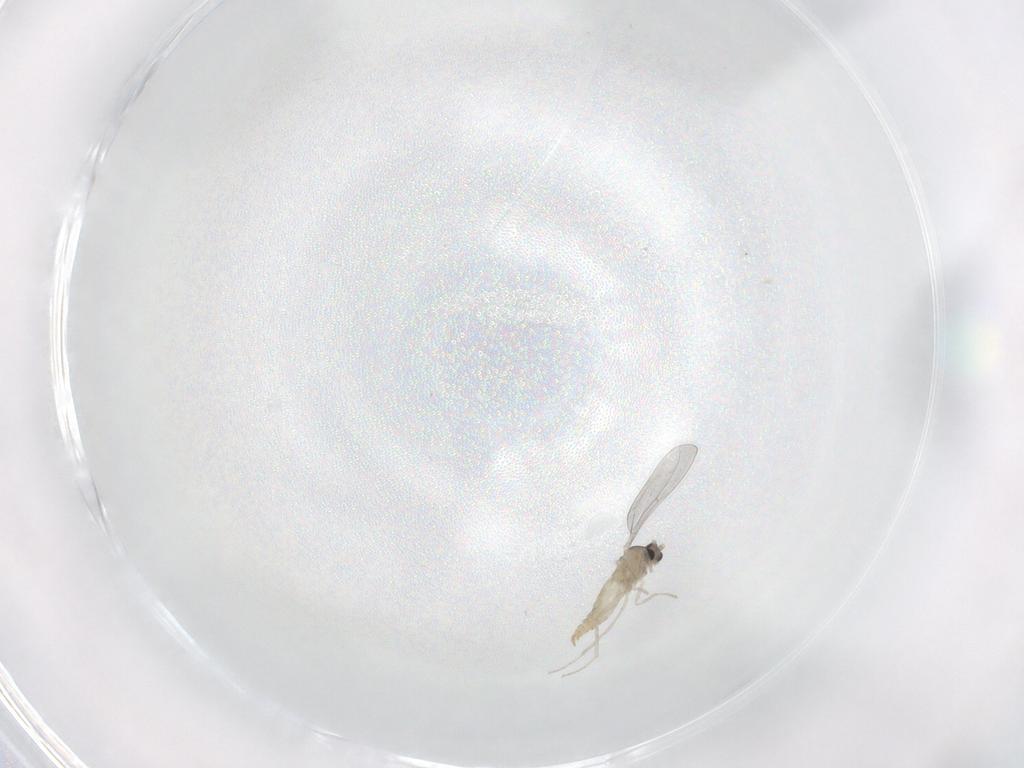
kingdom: Animalia
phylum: Arthropoda
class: Insecta
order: Diptera
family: Cecidomyiidae
